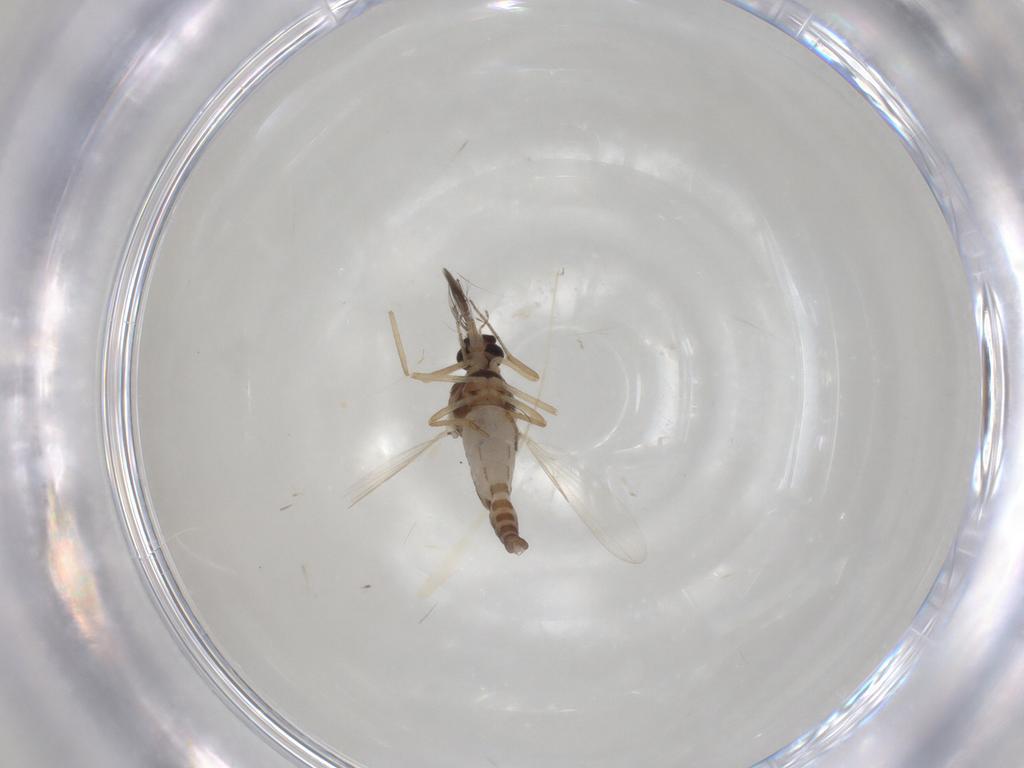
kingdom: Animalia
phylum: Arthropoda
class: Insecta
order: Diptera
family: Ceratopogonidae
